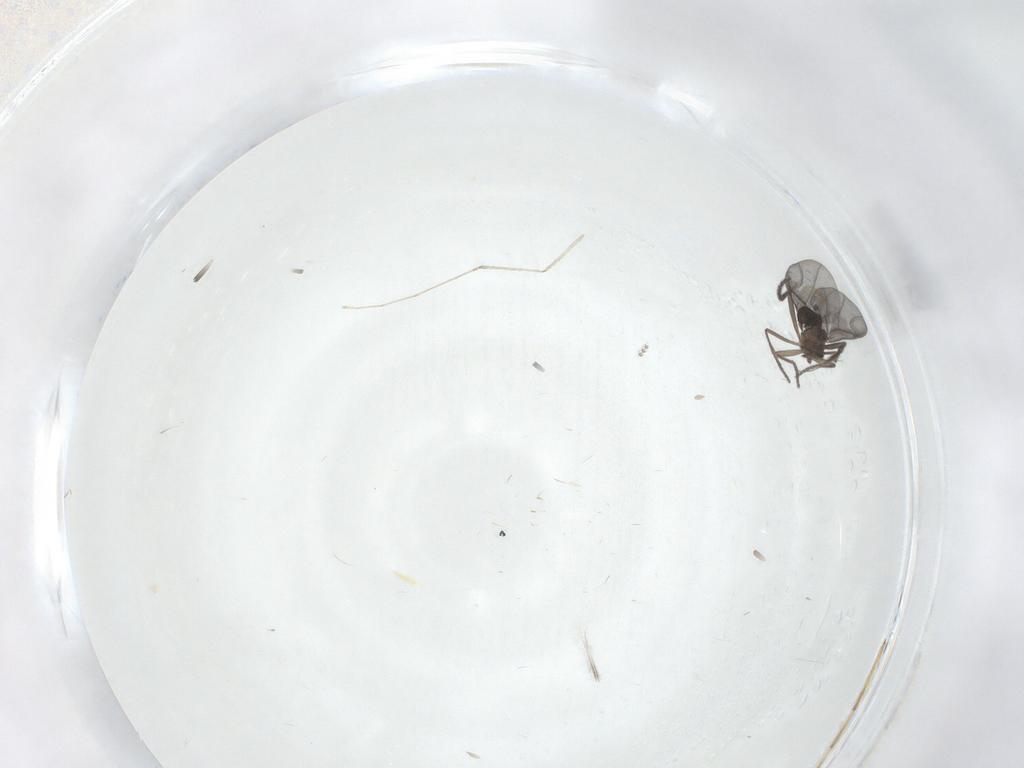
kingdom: Animalia
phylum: Arthropoda
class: Insecta
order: Diptera
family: Phoridae
